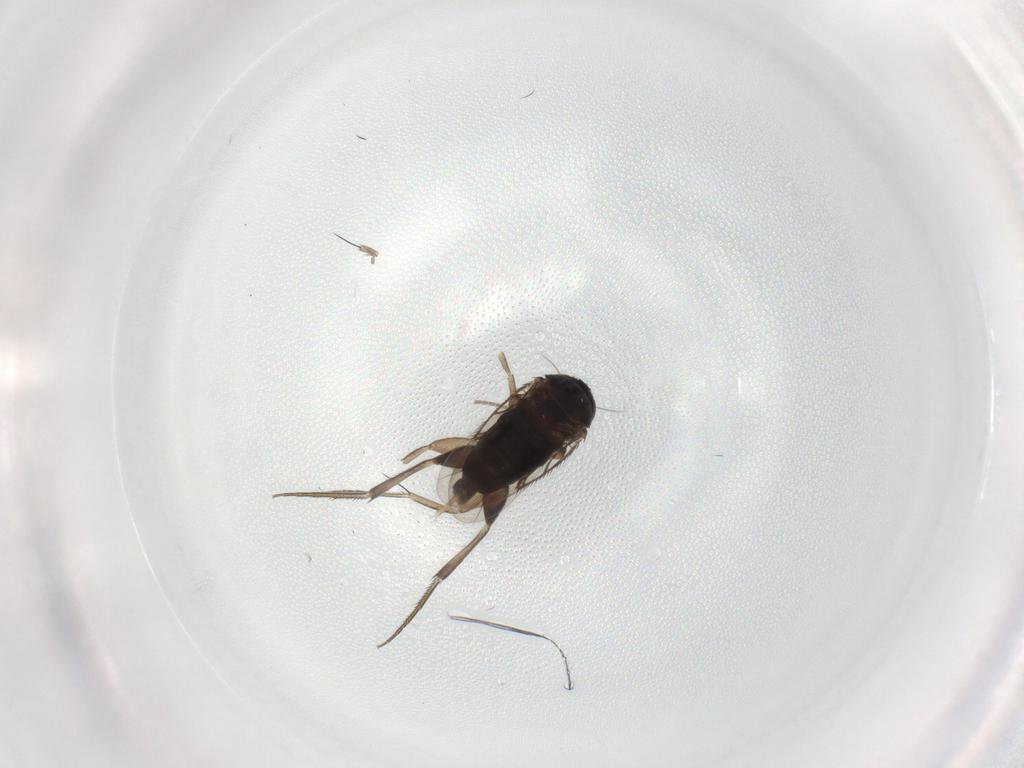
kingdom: Animalia
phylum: Arthropoda
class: Insecta
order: Diptera
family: Phoridae
